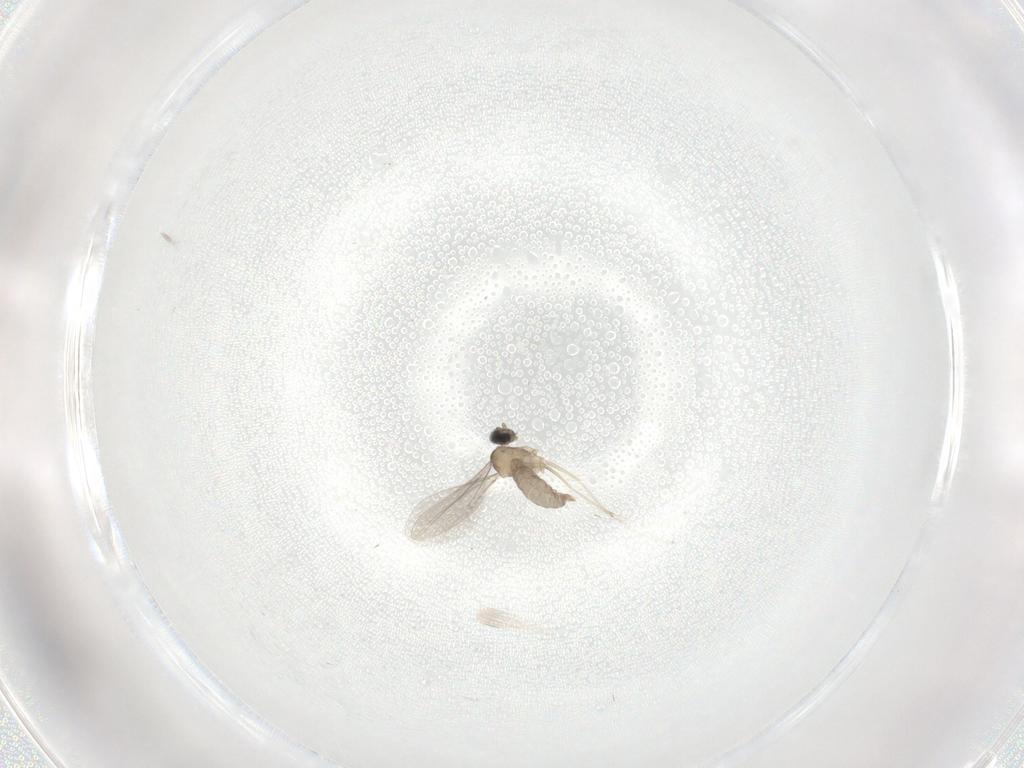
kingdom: Animalia
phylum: Arthropoda
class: Insecta
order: Diptera
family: Cecidomyiidae
